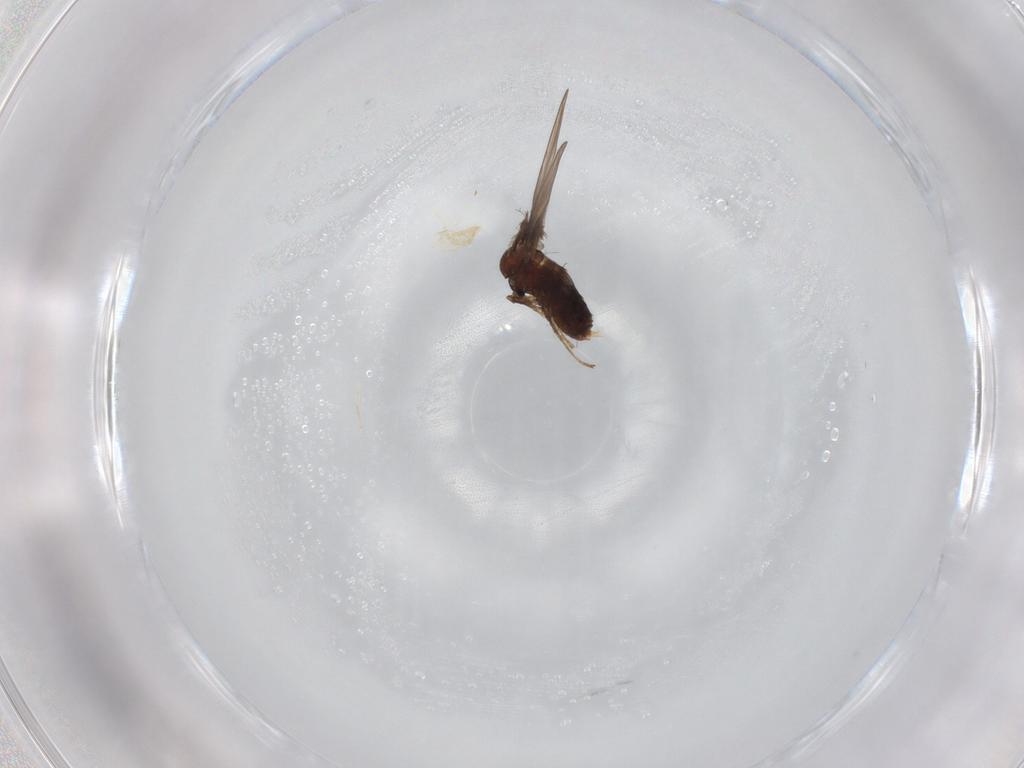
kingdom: Animalia
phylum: Arthropoda
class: Insecta
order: Diptera
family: Psychodidae
